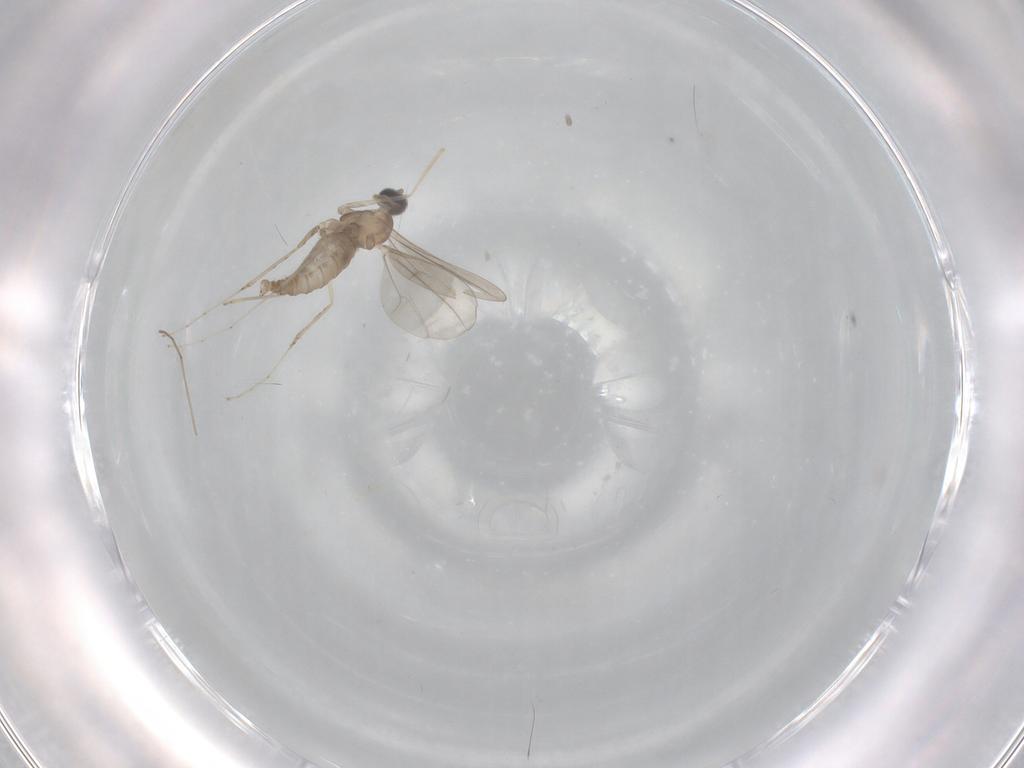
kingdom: Animalia
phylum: Arthropoda
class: Insecta
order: Diptera
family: Cecidomyiidae
